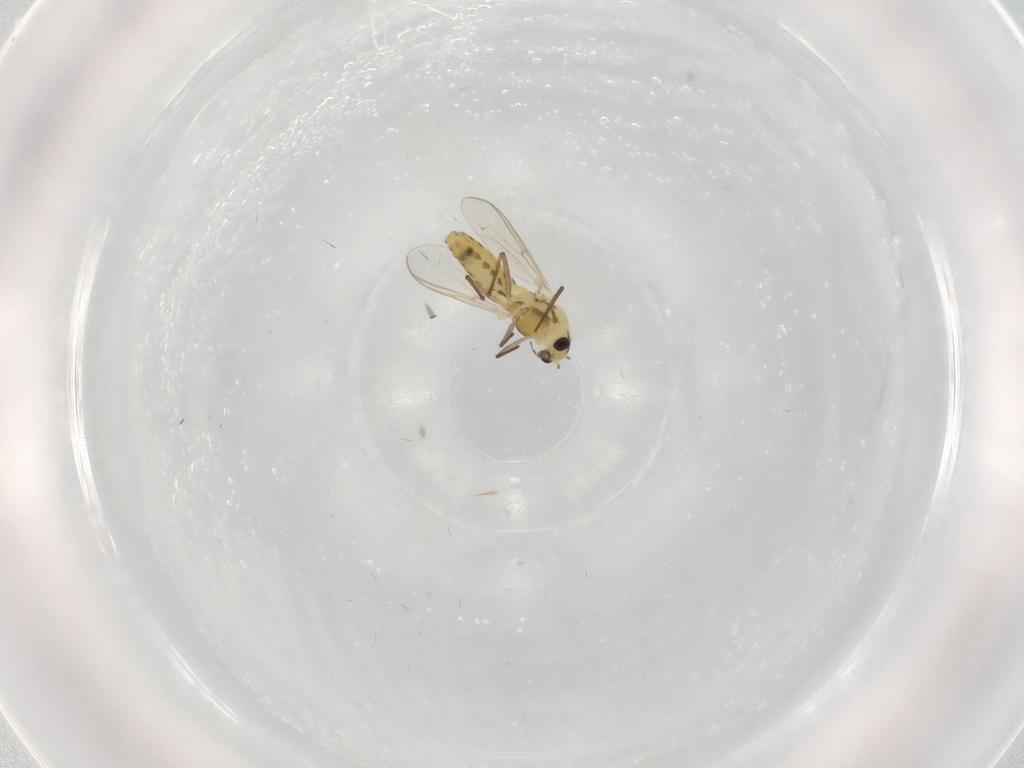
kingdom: Animalia
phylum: Arthropoda
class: Insecta
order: Diptera
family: Chironomidae
